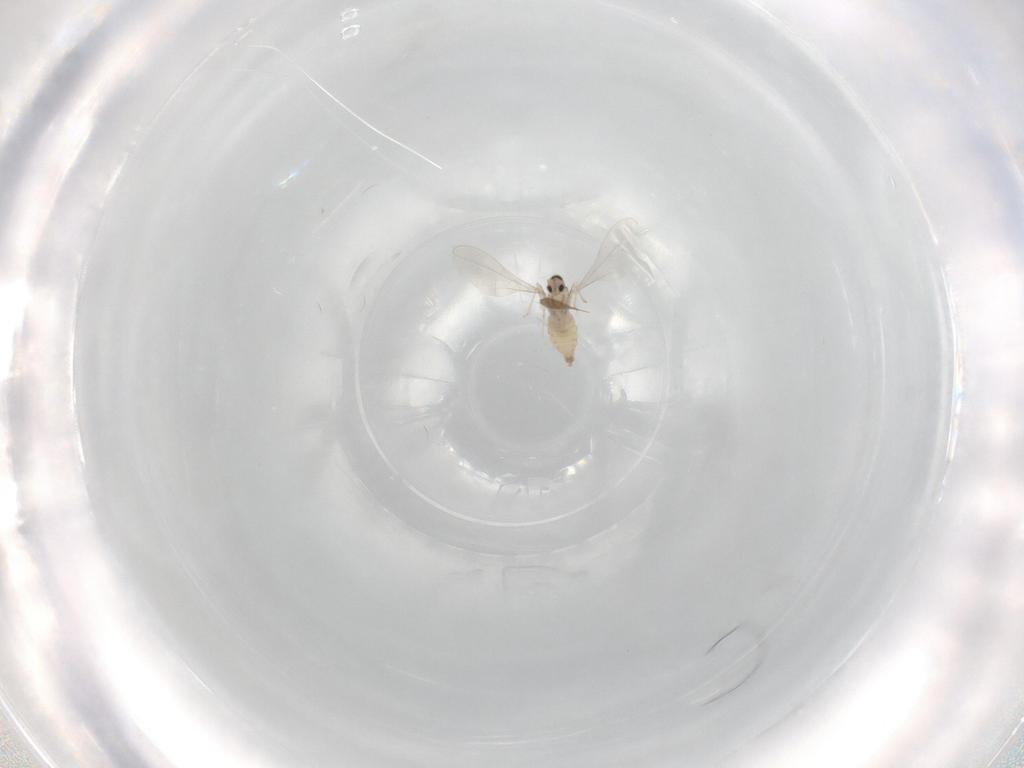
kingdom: Animalia
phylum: Arthropoda
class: Insecta
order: Diptera
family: Cecidomyiidae
